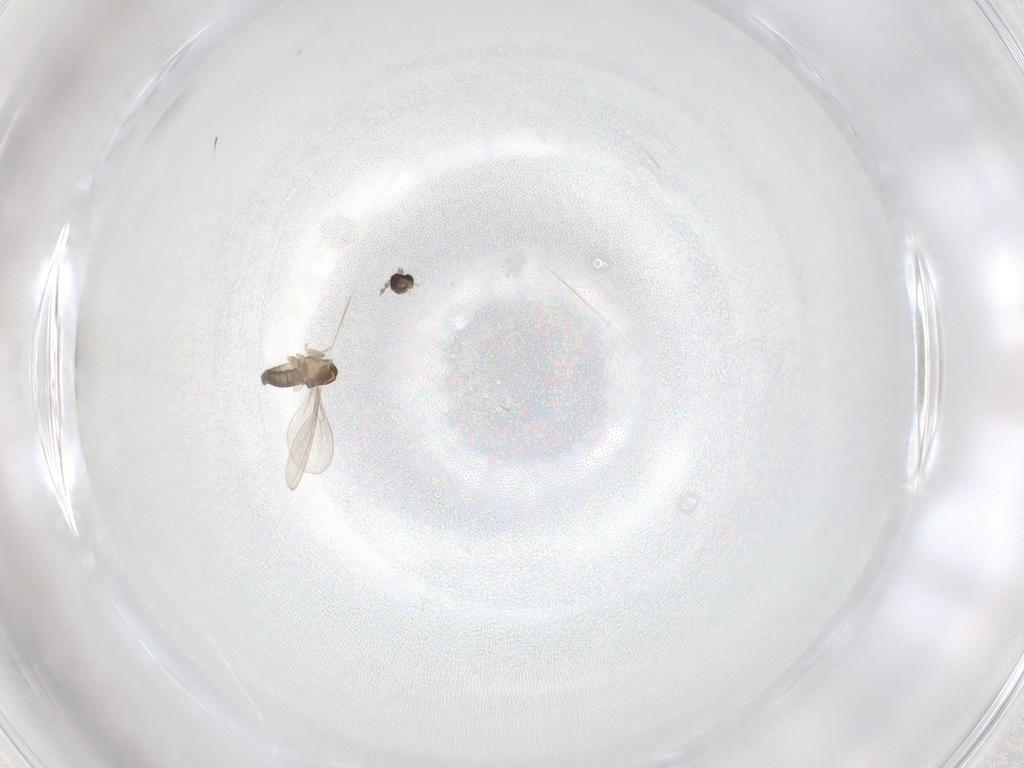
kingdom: Animalia
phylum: Arthropoda
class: Insecta
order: Diptera
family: Cecidomyiidae
